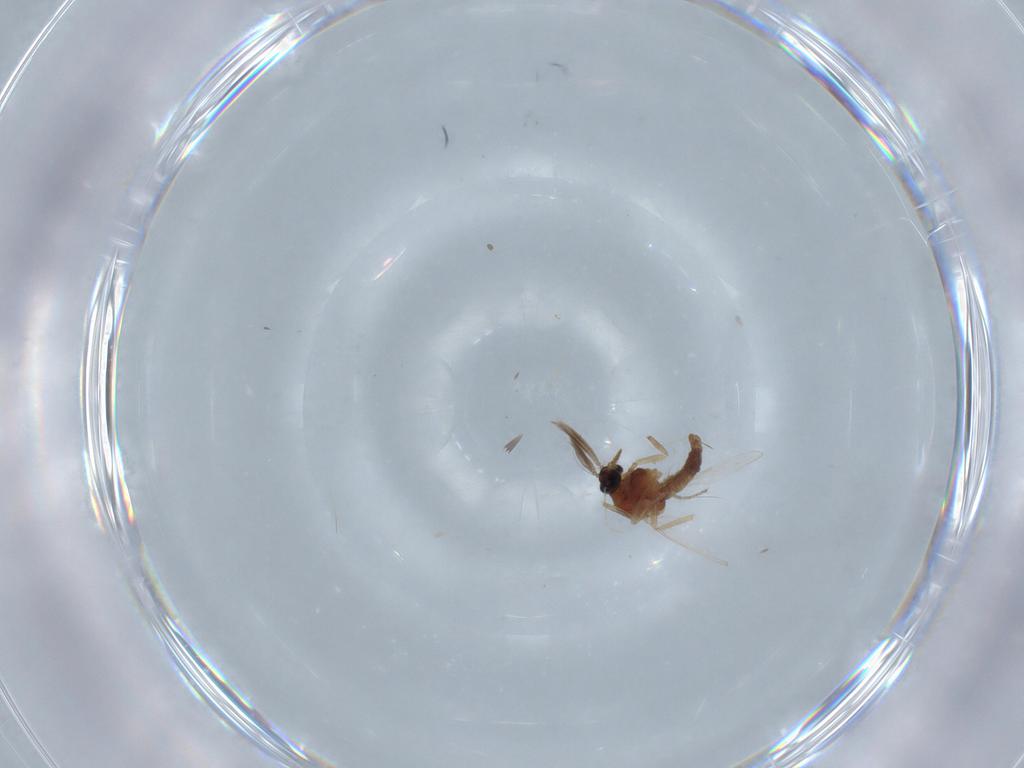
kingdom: Animalia
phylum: Arthropoda
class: Insecta
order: Diptera
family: Ceratopogonidae
